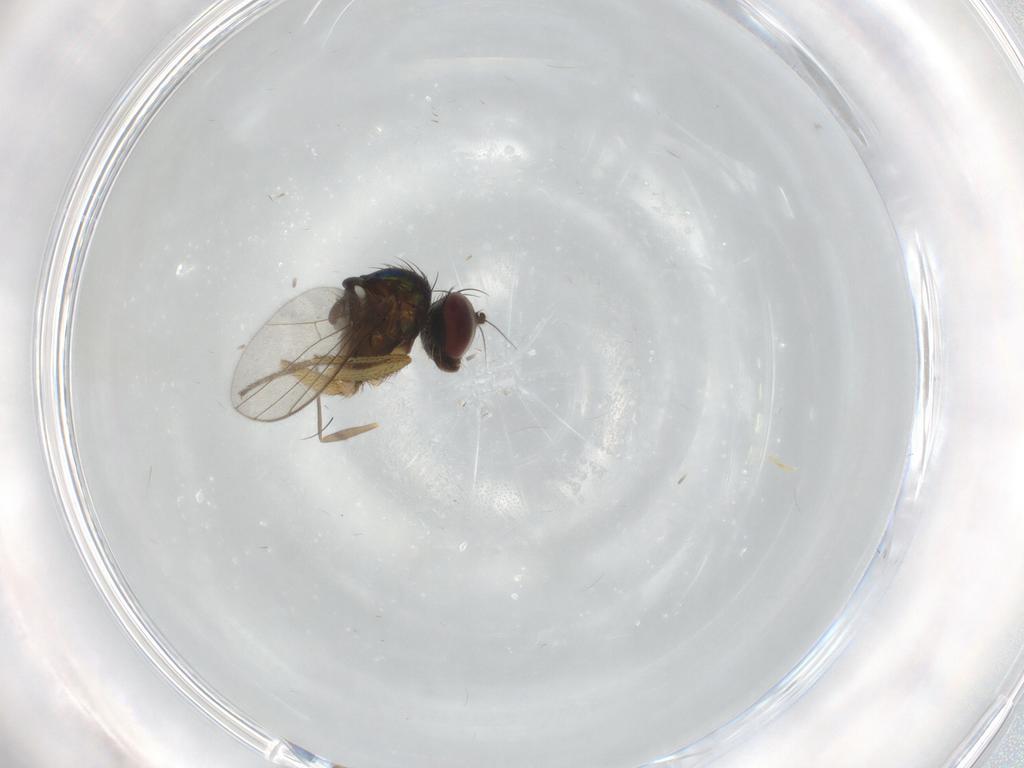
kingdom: Animalia
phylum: Arthropoda
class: Insecta
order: Diptera
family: Dolichopodidae
